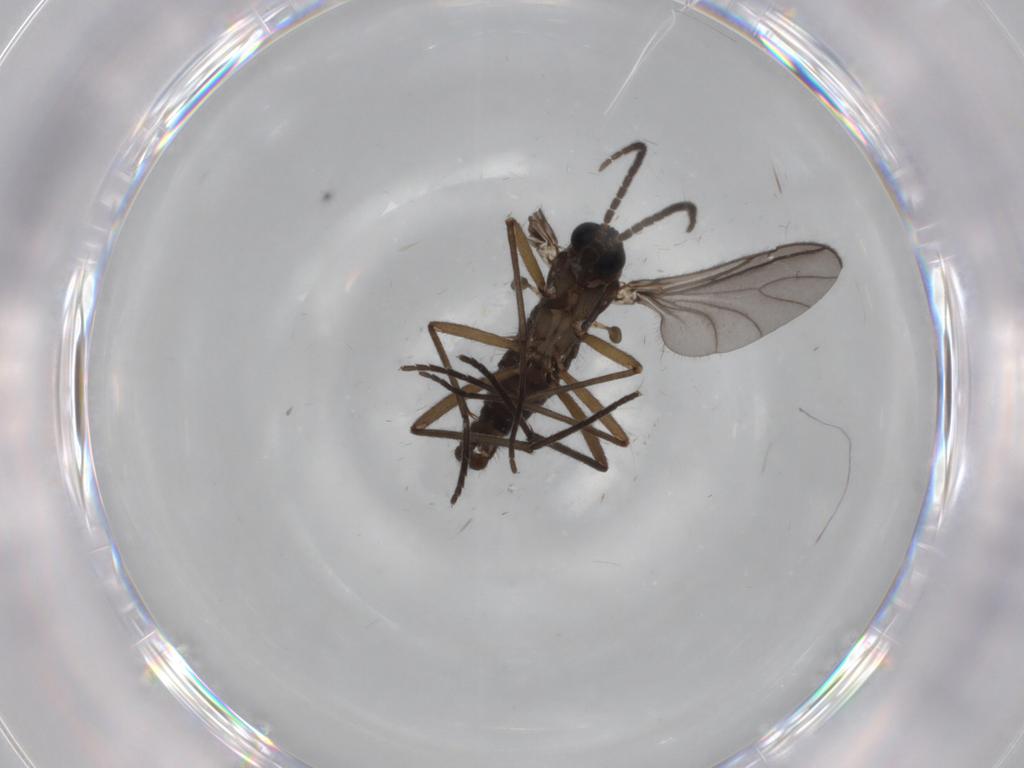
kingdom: Animalia
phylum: Arthropoda
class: Insecta
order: Diptera
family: Sciaridae
